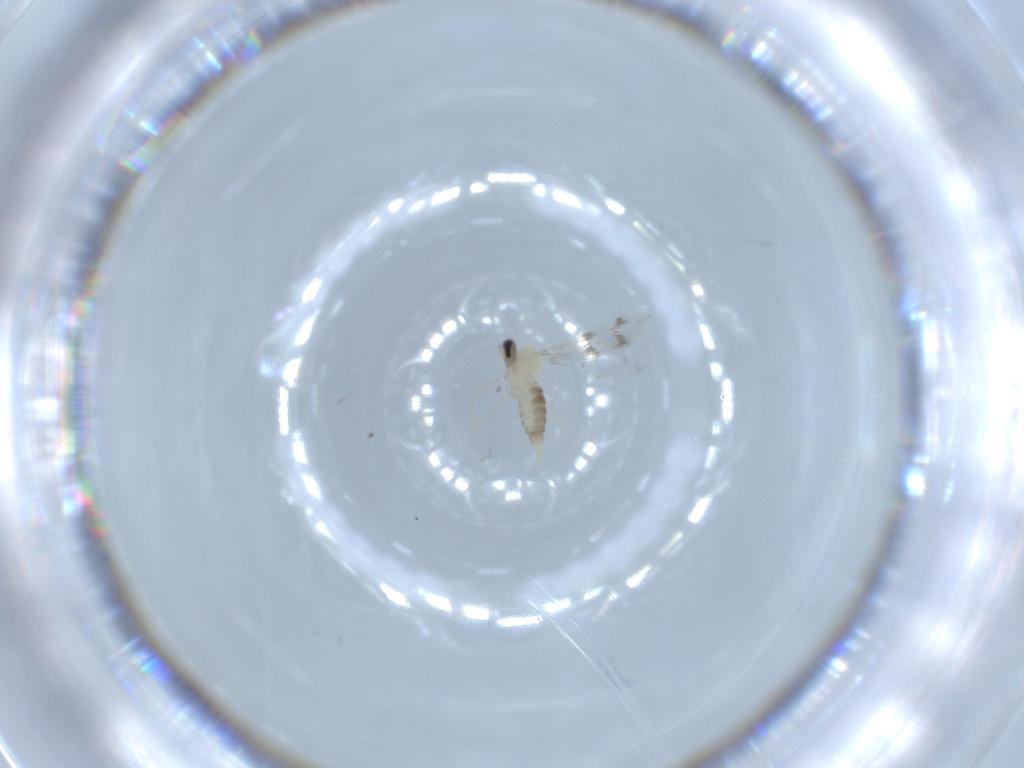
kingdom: Animalia
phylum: Arthropoda
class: Insecta
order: Diptera
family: Cecidomyiidae
